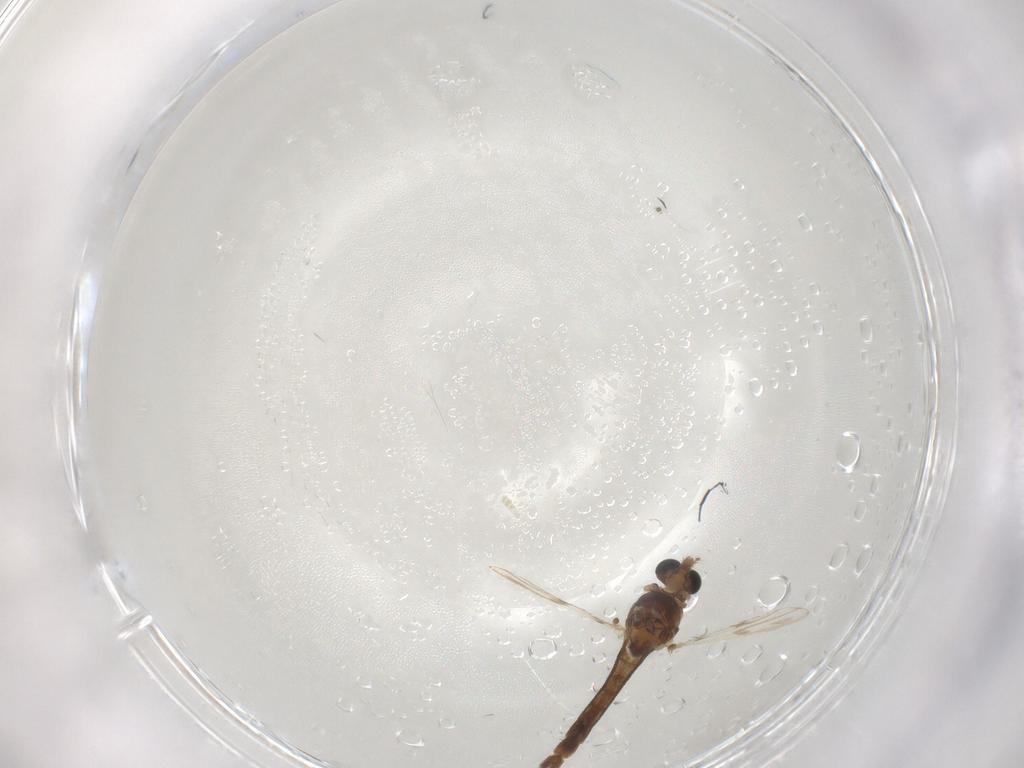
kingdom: Animalia
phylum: Arthropoda
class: Insecta
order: Diptera
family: Chironomidae
